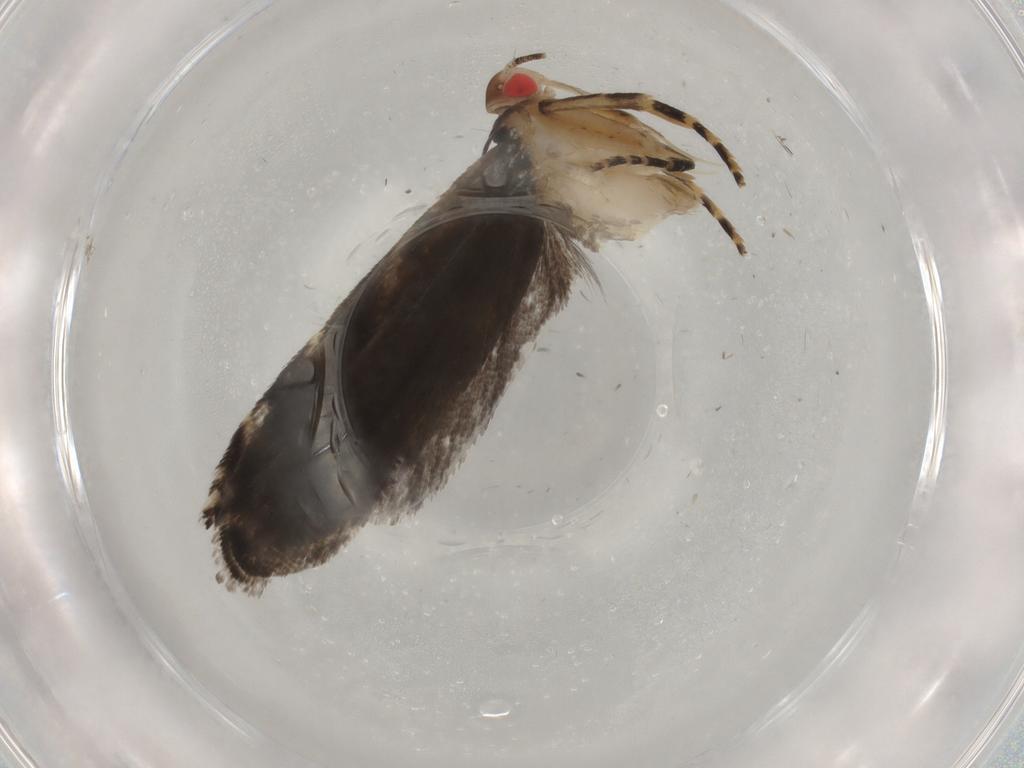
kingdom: Animalia
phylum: Arthropoda
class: Insecta
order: Lepidoptera
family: Crambidae
